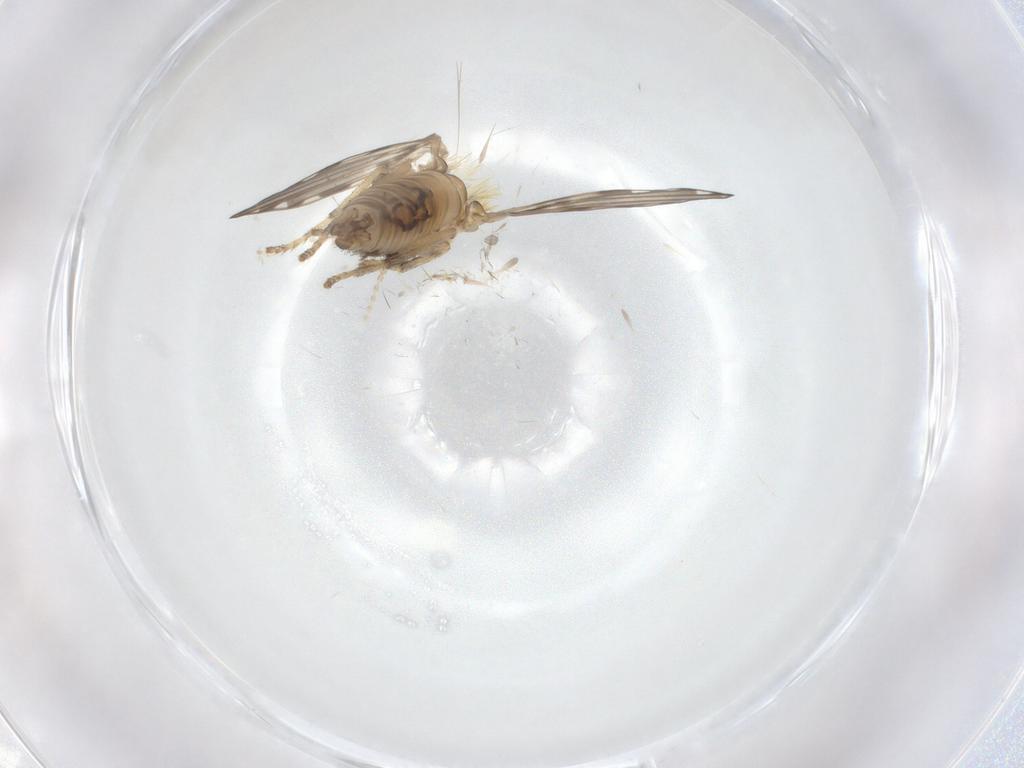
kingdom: Animalia
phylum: Arthropoda
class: Insecta
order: Diptera
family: Psychodidae
